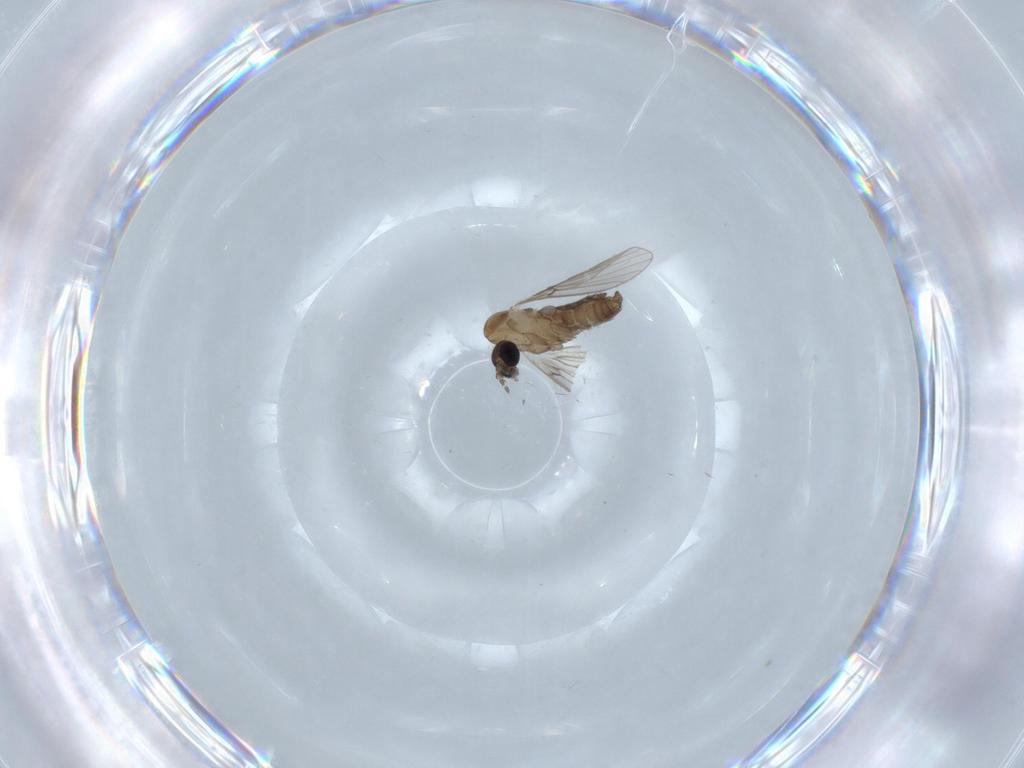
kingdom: Animalia
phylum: Arthropoda
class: Insecta
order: Diptera
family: Psychodidae
